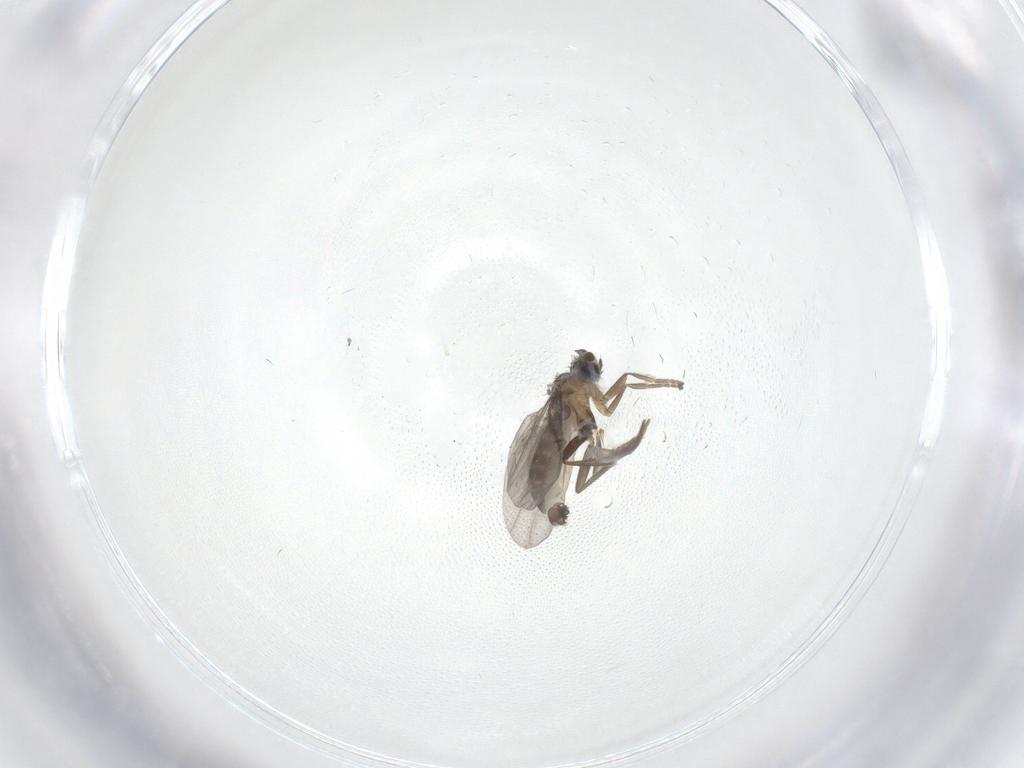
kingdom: Animalia
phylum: Arthropoda
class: Insecta
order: Diptera
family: Phoridae
